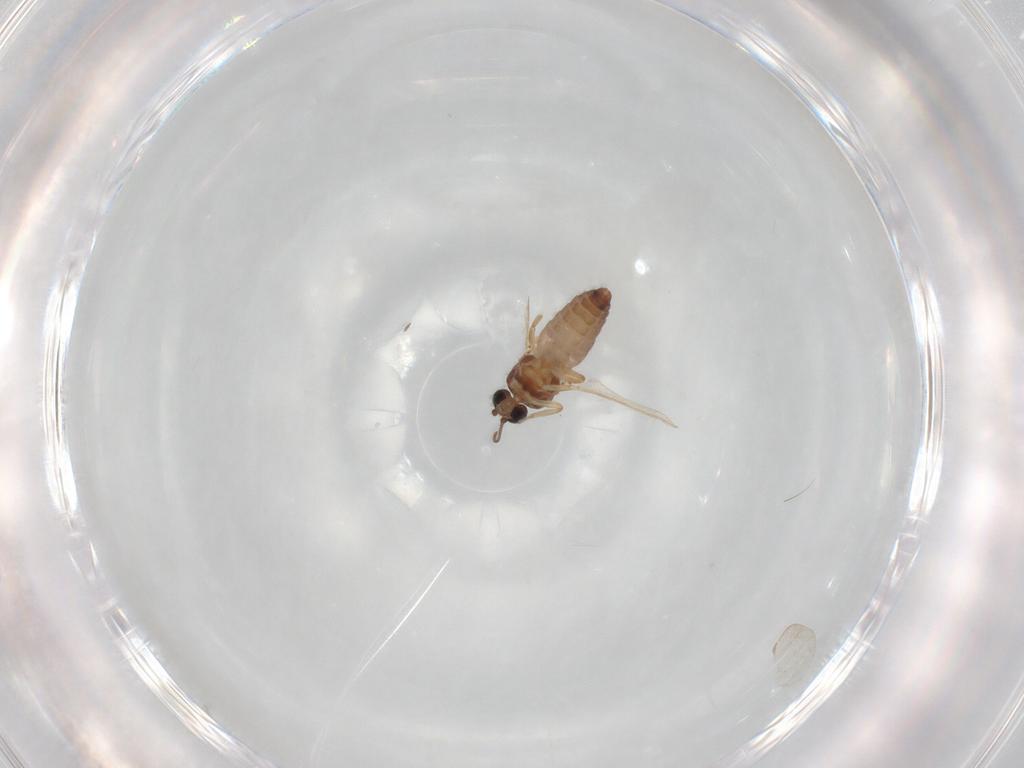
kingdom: Animalia
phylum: Arthropoda
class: Insecta
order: Diptera
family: Ceratopogonidae
